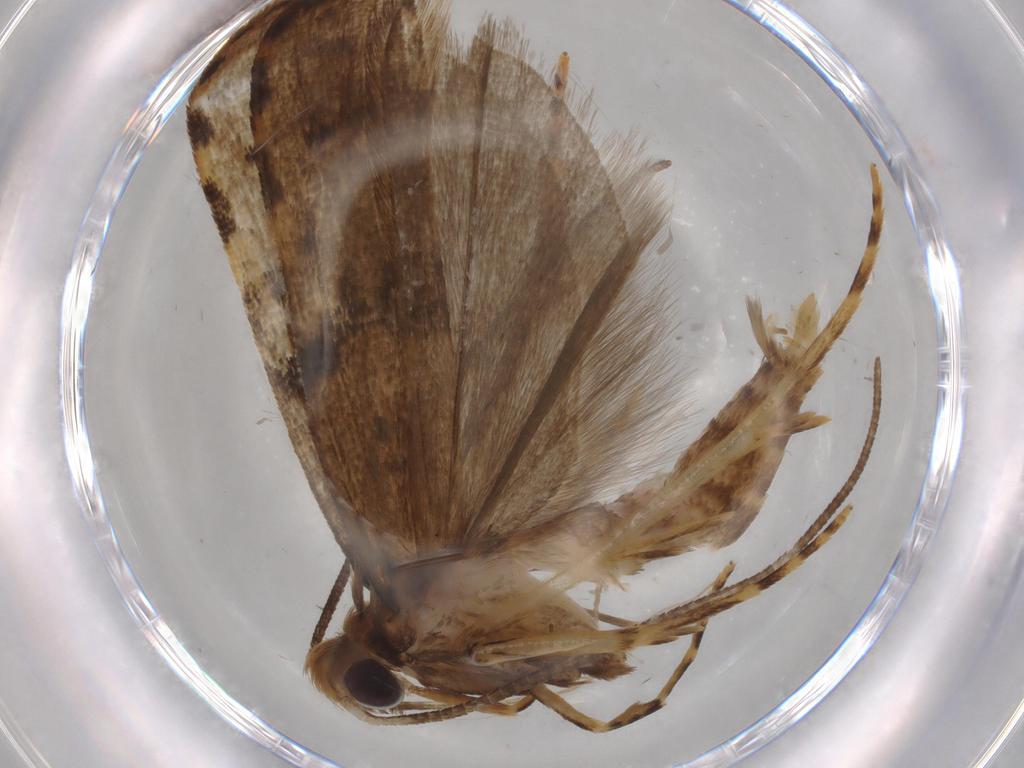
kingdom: Animalia
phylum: Arthropoda
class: Insecta
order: Lepidoptera
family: Autostichidae
